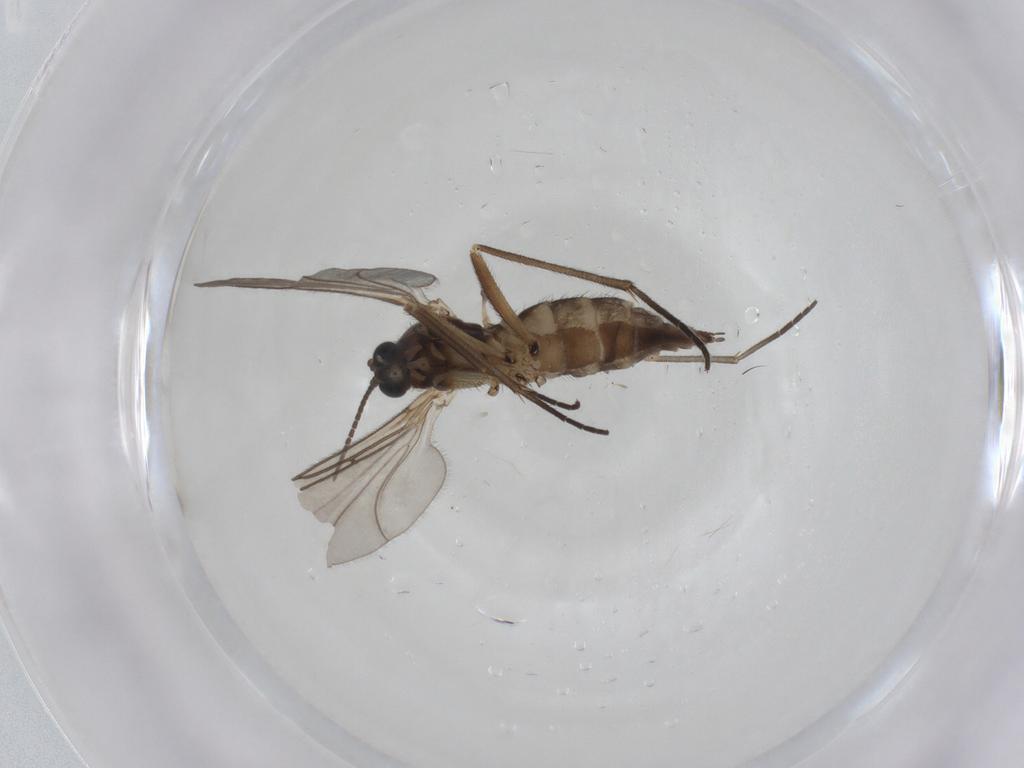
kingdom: Animalia
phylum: Arthropoda
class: Insecta
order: Diptera
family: Sciaridae
